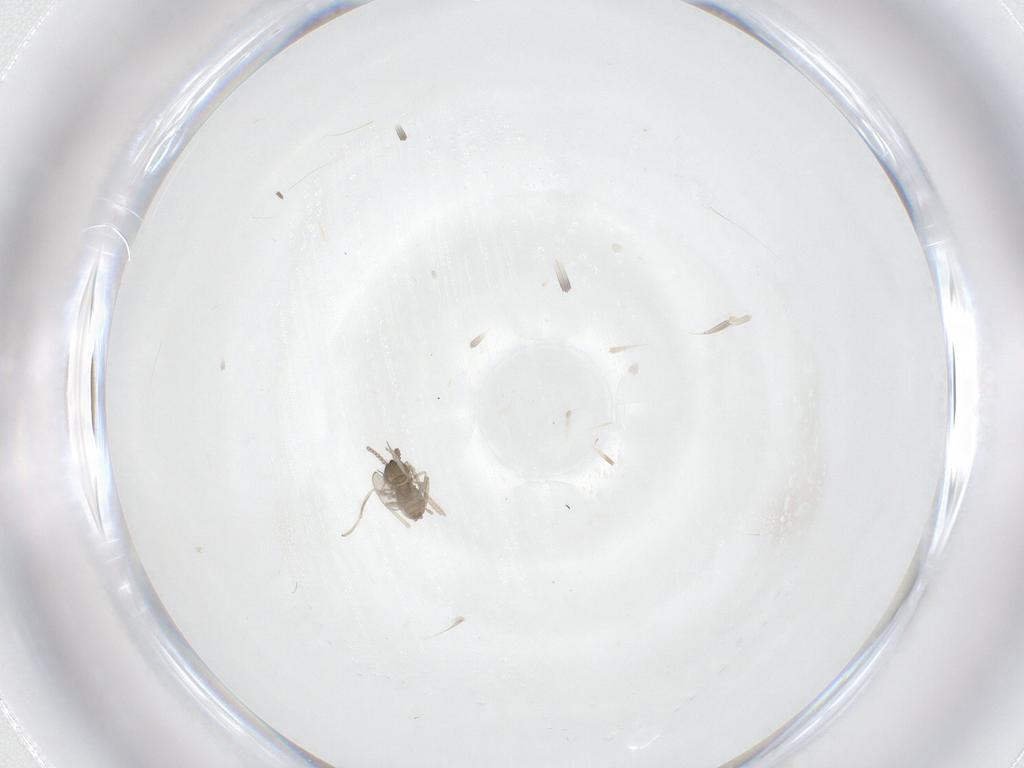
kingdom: Animalia
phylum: Arthropoda
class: Insecta
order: Diptera
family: Cecidomyiidae
